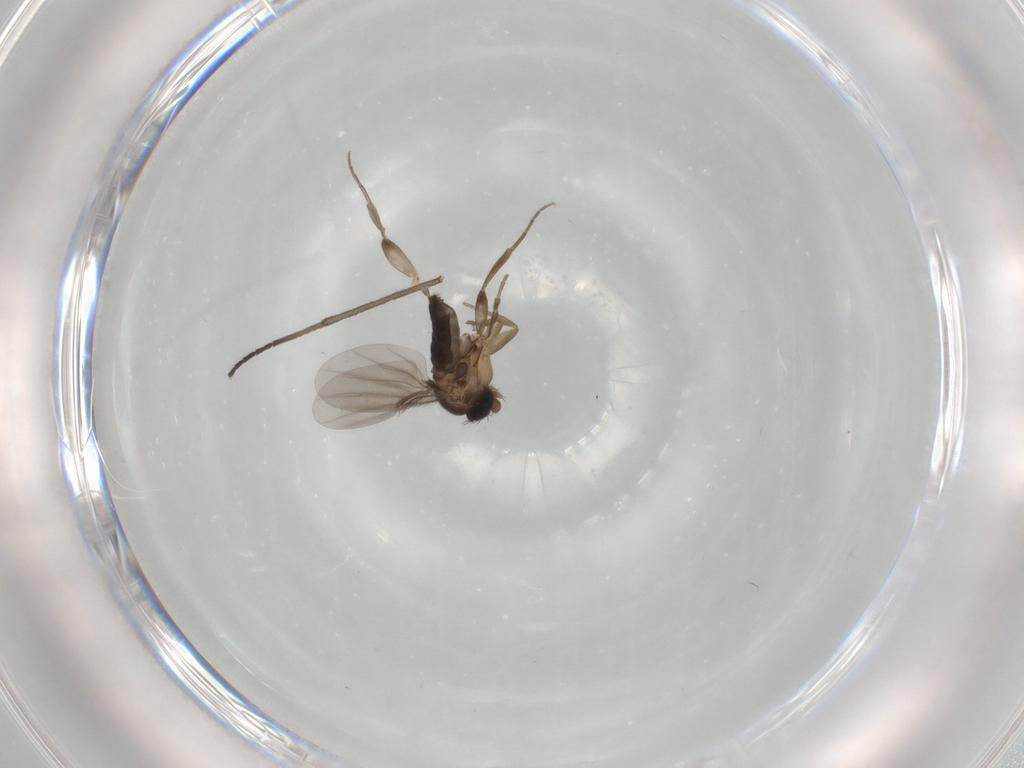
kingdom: Animalia
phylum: Arthropoda
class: Insecta
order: Diptera
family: Phoridae
